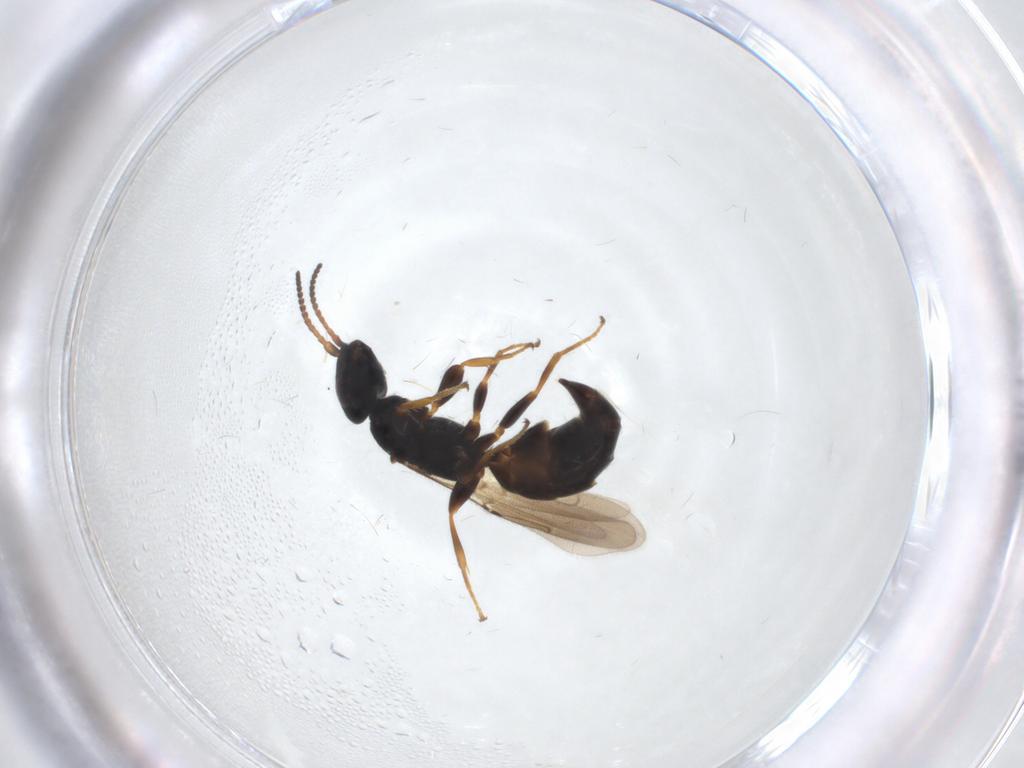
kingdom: Animalia
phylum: Arthropoda
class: Insecta
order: Hymenoptera
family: Bethylidae
